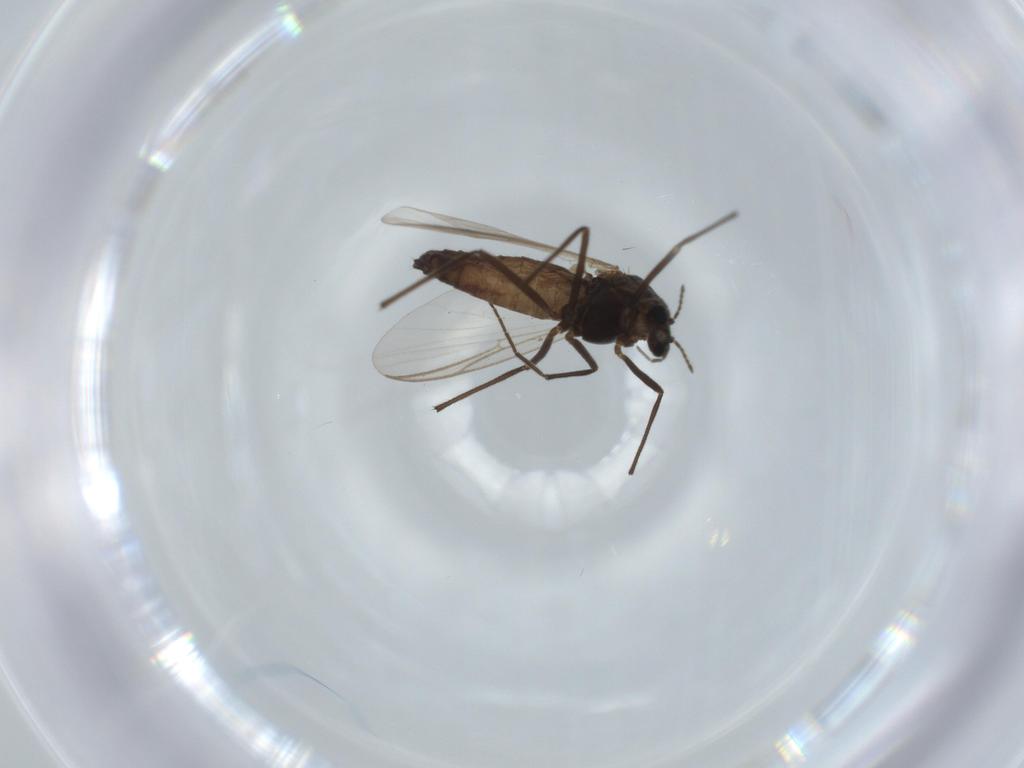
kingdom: Animalia
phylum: Arthropoda
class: Insecta
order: Diptera
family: Chironomidae
